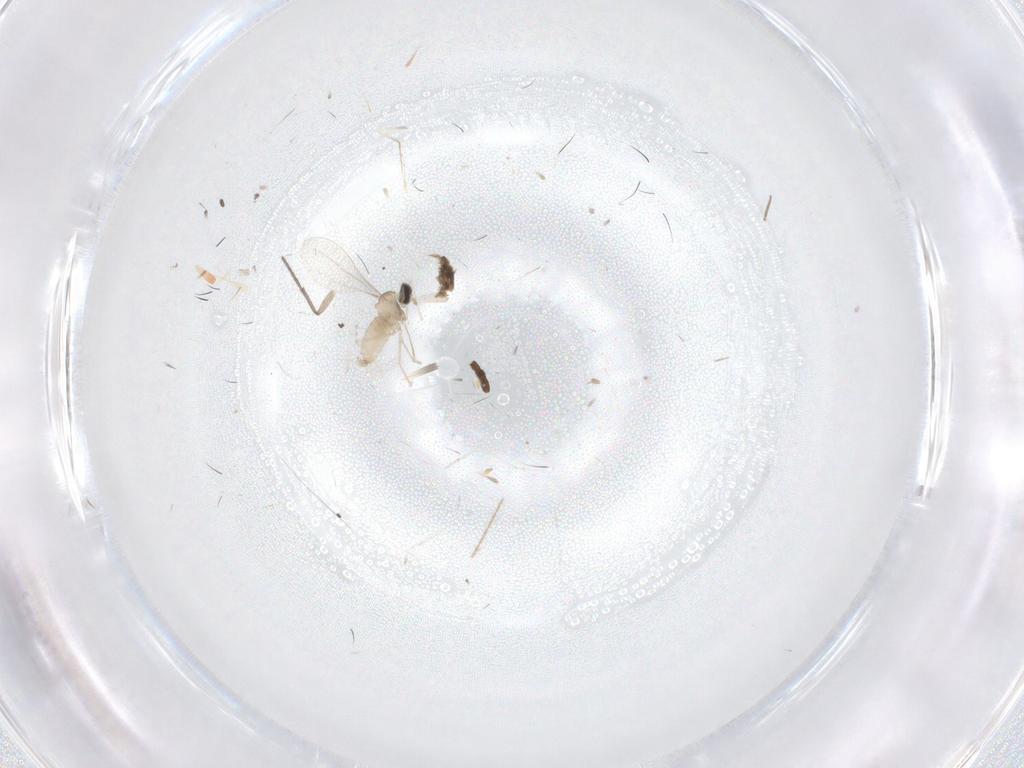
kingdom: Animalia
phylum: Arthropoda
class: Insecta
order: Diptera
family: Sciaridae
